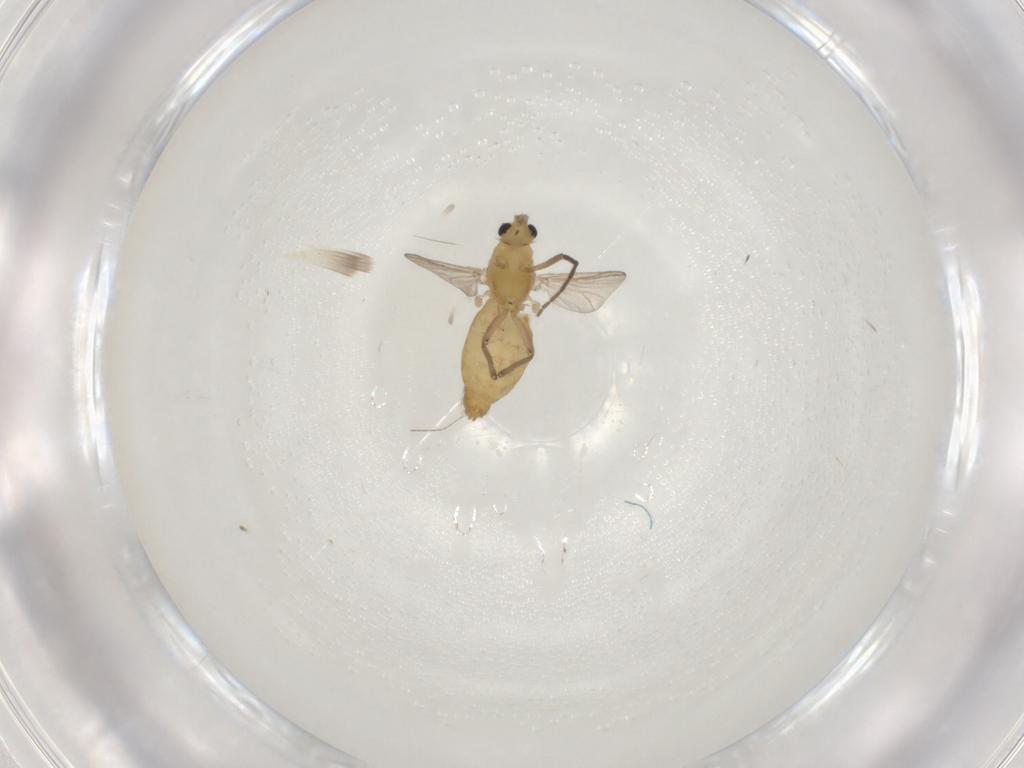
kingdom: Animalia
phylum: Arthropoda
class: Insecta
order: Diptera
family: Chironomidae
